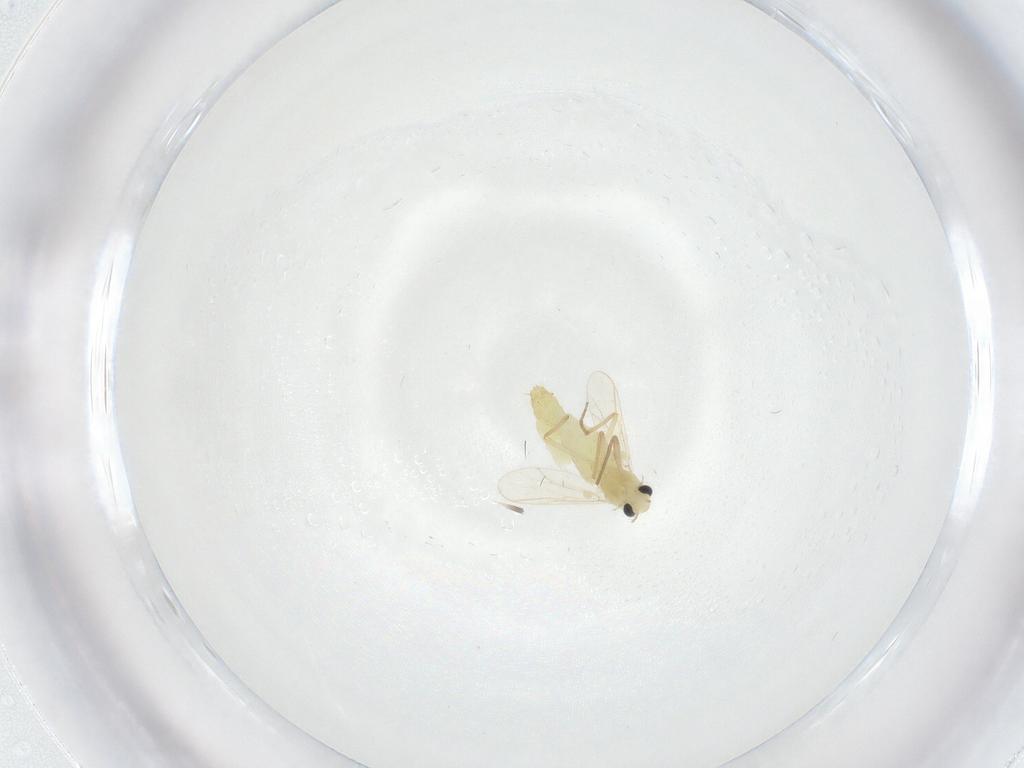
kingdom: Animalia
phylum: Arthropoda
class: Insecta
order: Diptera
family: Chironomidae
